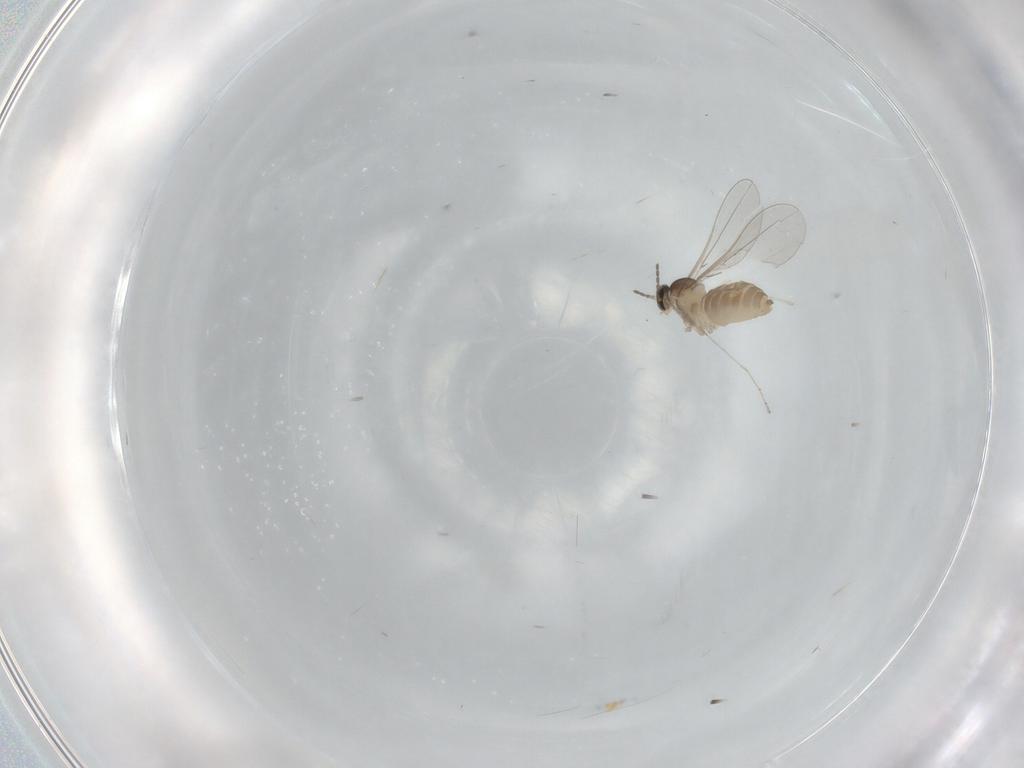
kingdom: Animalia
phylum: Arthropoda
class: Insecta
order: Diptera
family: Cecidomyiidae
